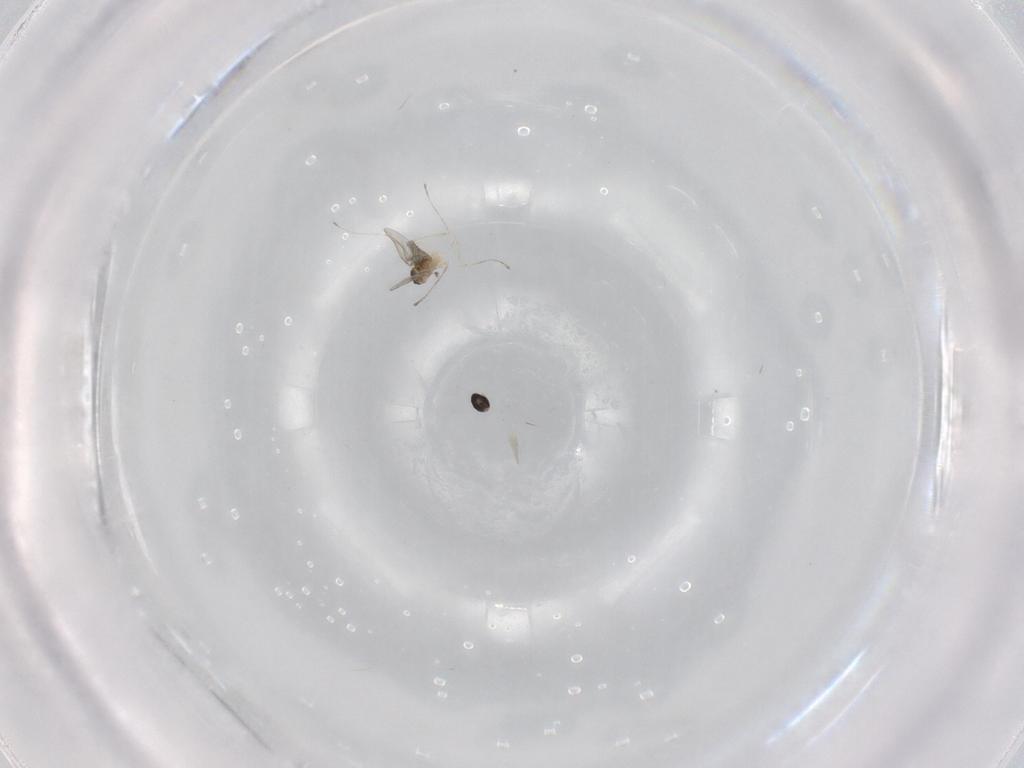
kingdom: Animalia
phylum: Arthropoda
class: Insecta
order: Diptera
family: Cecidomyiidae
